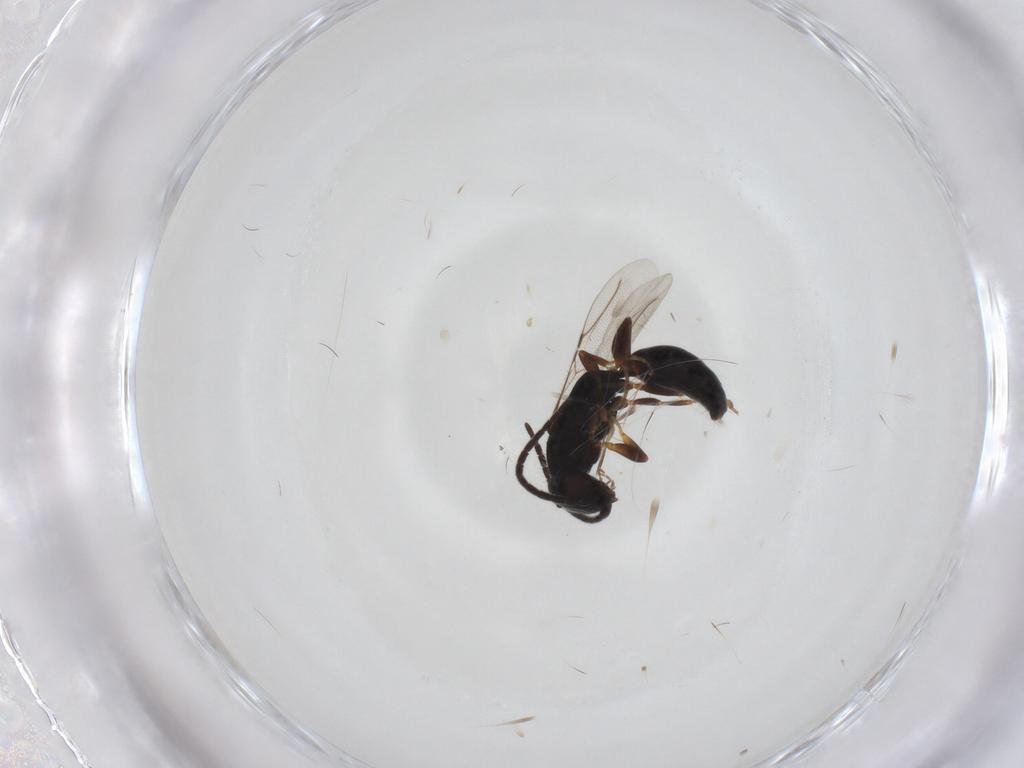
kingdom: Animalia
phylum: Arthropoda
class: Insecta
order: Hymenoptera
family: Bethylidae
